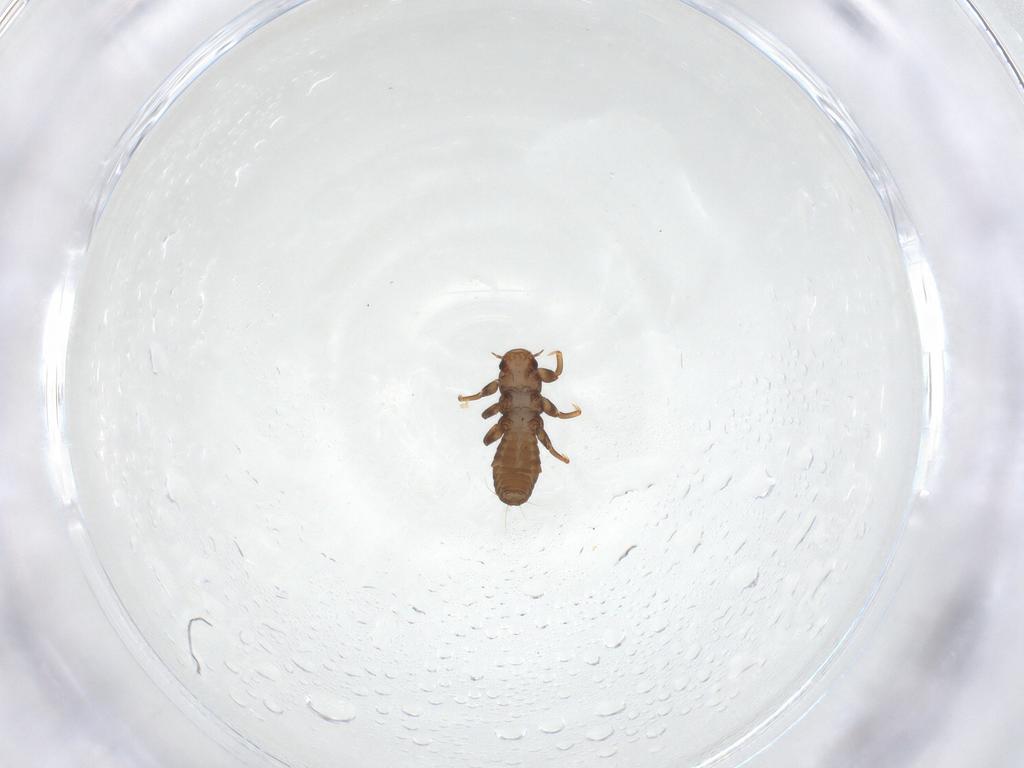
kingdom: Animalia
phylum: Arthropoda
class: Insecta
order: Coleoptera
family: Meloidae
